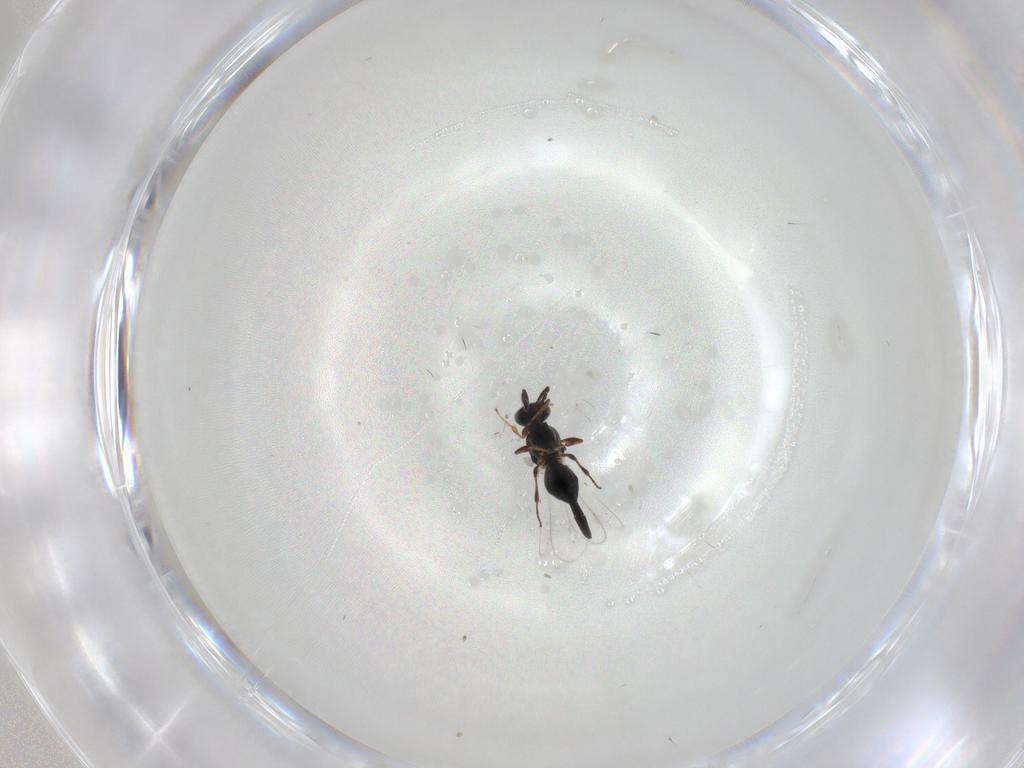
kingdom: Animalia
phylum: Arthropoda
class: Insecta
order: Hymenoptera
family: Platygastridae
